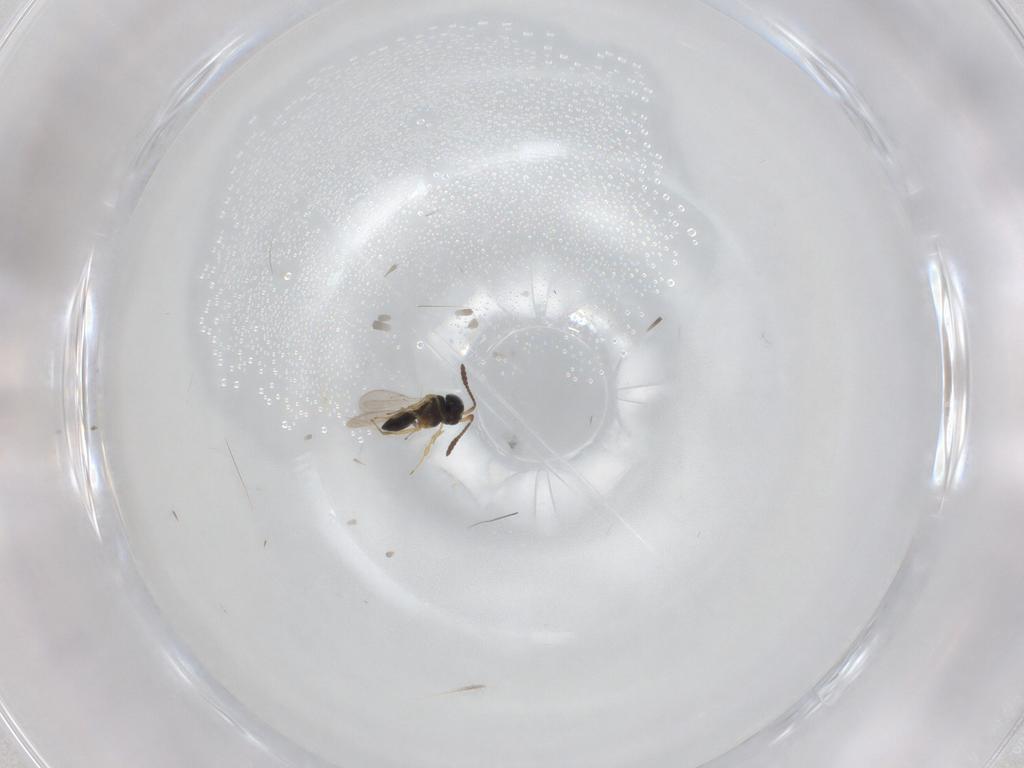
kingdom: Animalia
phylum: Arthropoda
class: Insecta
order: Hymenoptera
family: Scelionidae
